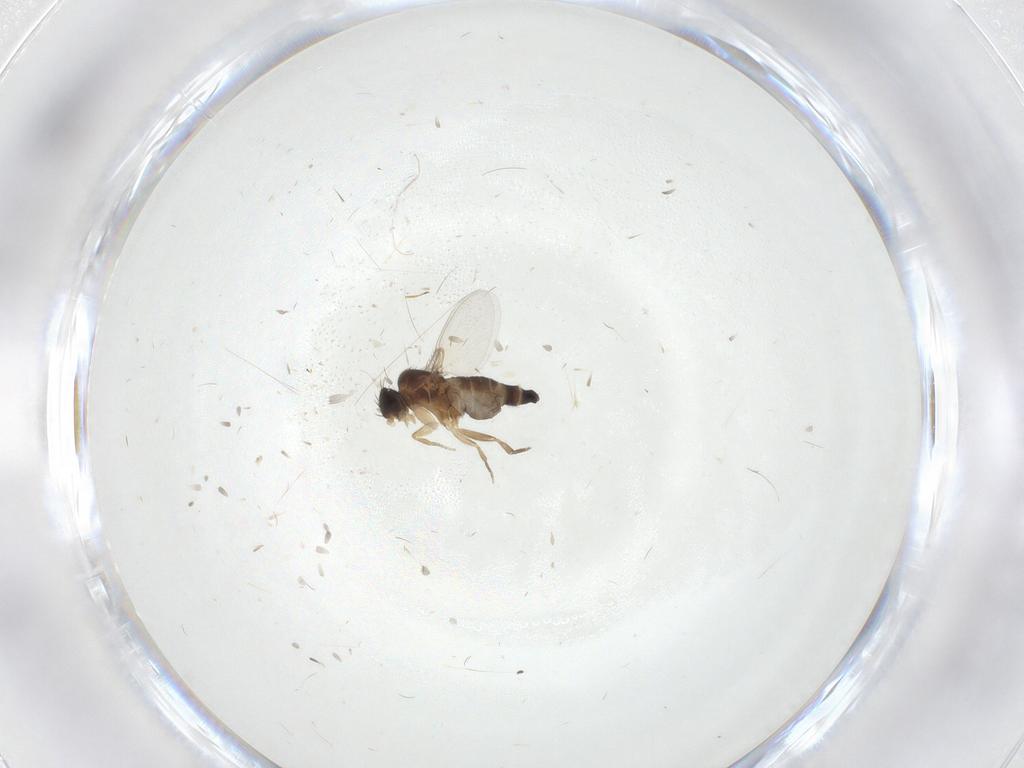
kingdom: Animalia
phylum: Arthropoda
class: Insecta
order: Diptera
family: Phoridae
